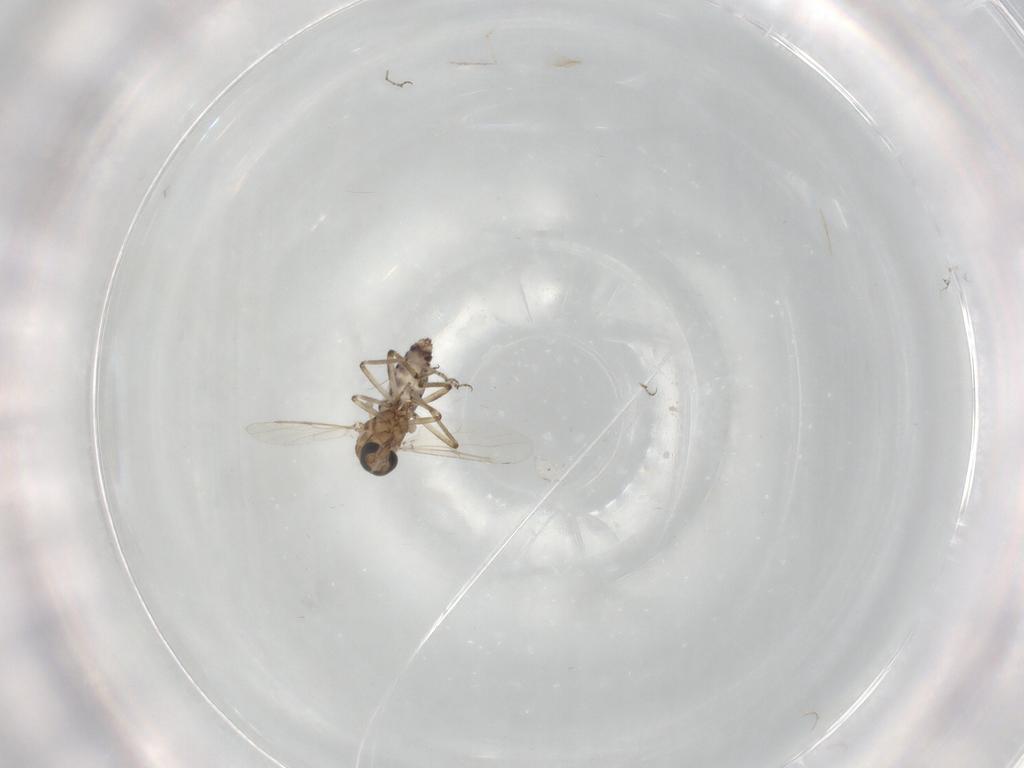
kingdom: Animalia
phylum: Arthropoda
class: Insecta
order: Diptera
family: Ceratopogonidae
